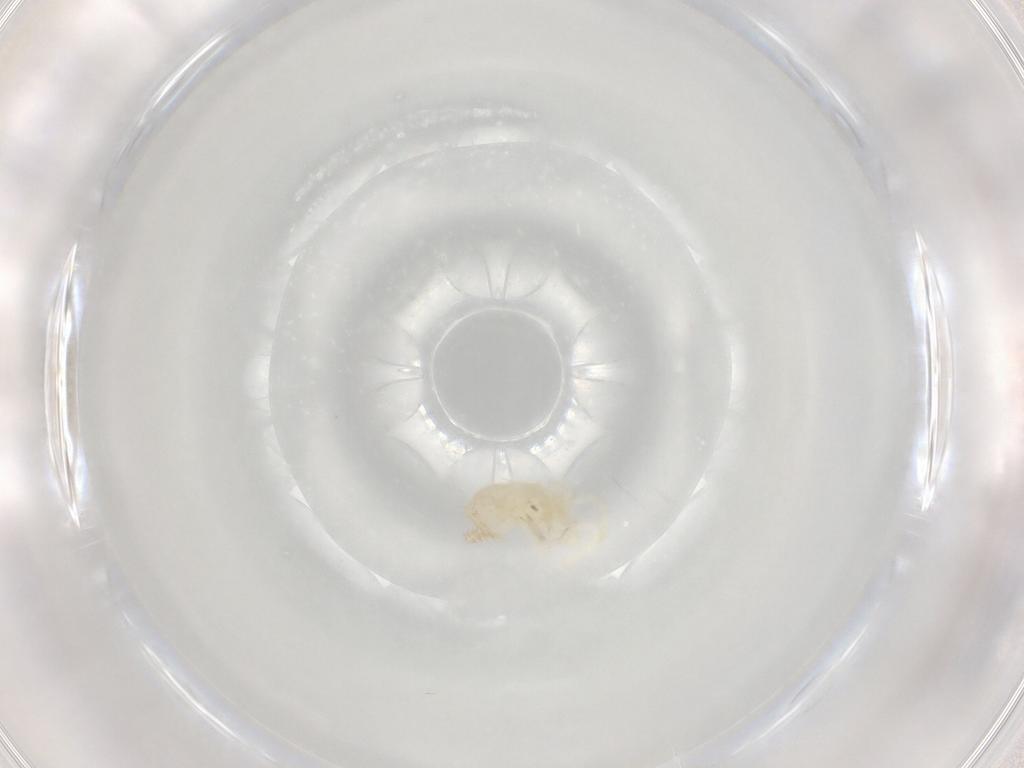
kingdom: Animalia
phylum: Arthropoda
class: Arachnida
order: Mesostigmata
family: Parasitidae
